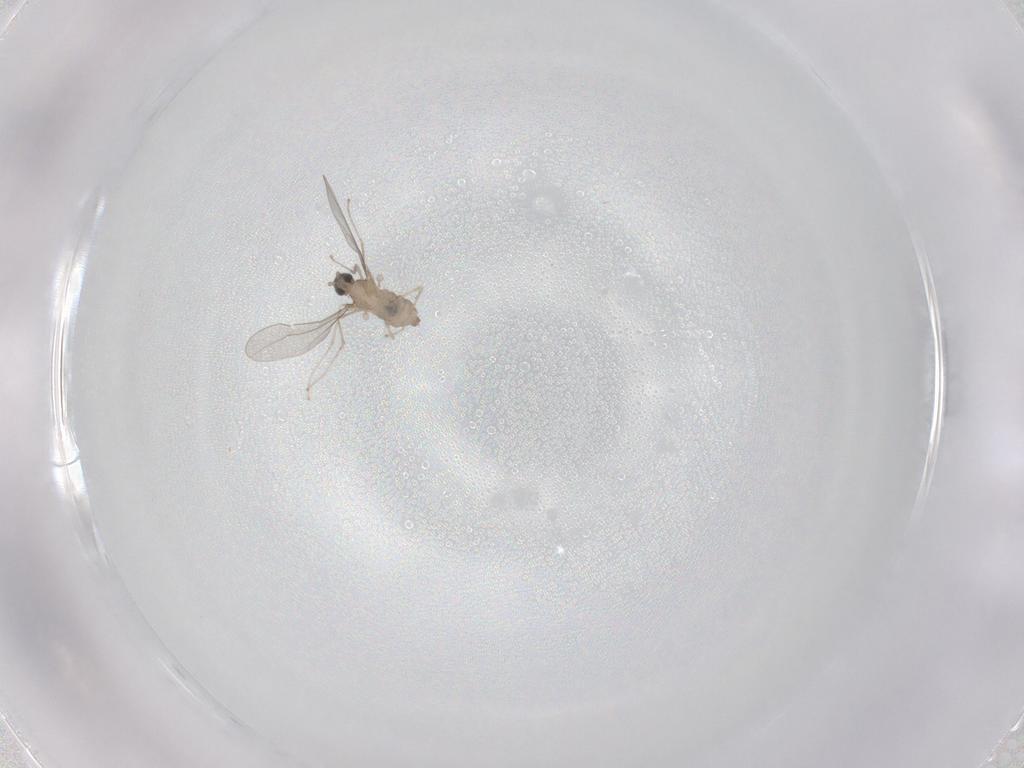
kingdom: Animalia
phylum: Arthropoda
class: Insecta
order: Diptera
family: Cecidomyiidae
